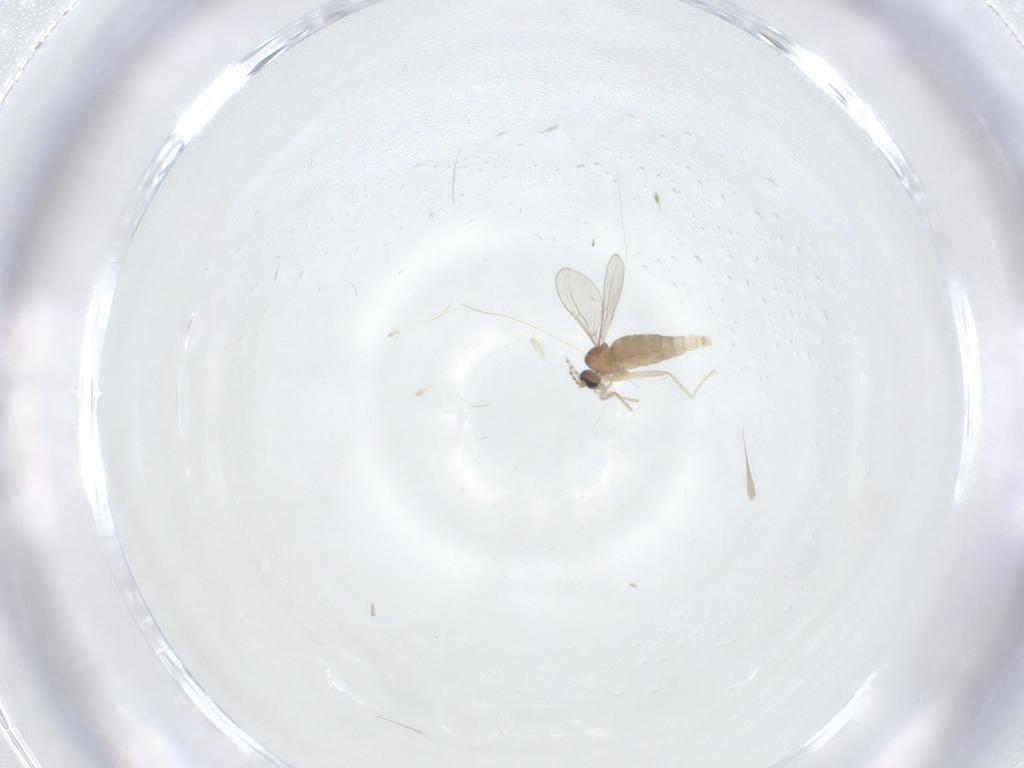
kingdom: Animalia
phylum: Arthropoda
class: Insecta
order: Diptera
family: Cecidomyiidae
